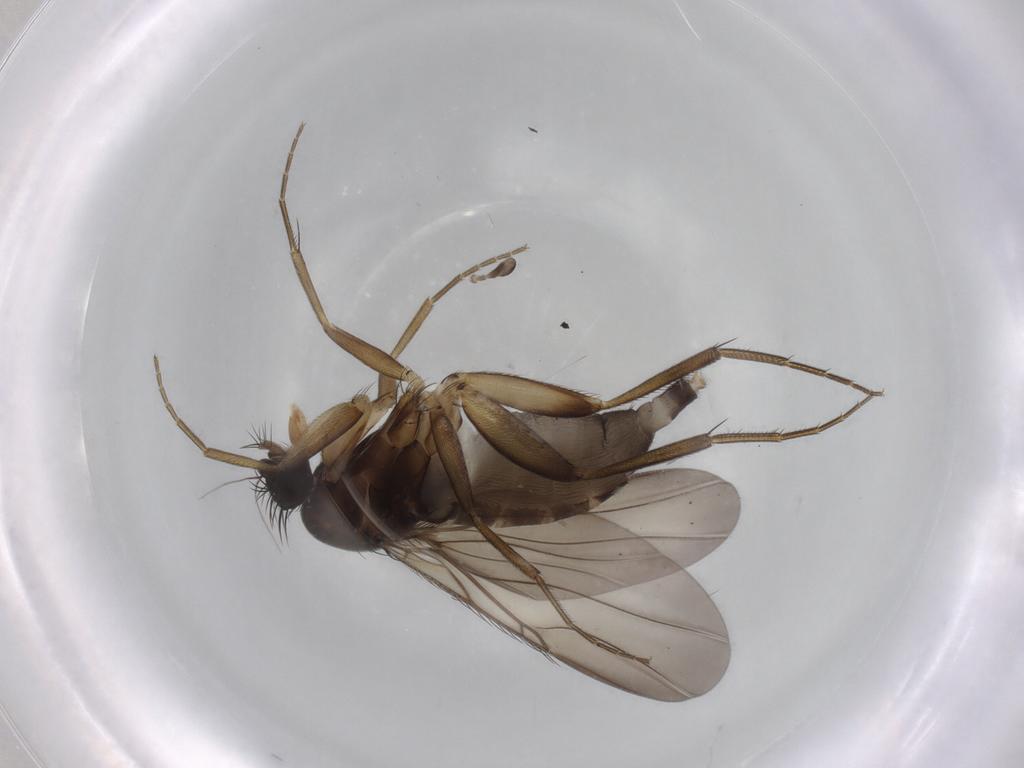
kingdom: Animalia
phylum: Arthropoda
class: Insecta
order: Diptera
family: Phoridae
